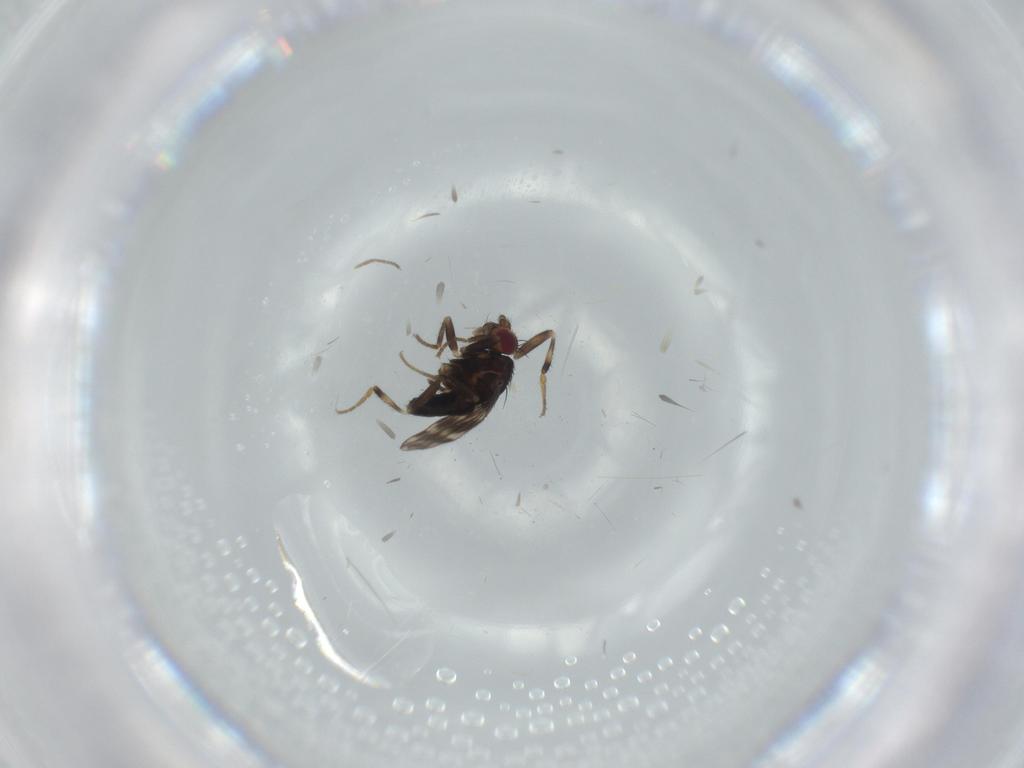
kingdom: Animalia
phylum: Arthropoda
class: Insecta
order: Diptera
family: Sphaeroceridae
